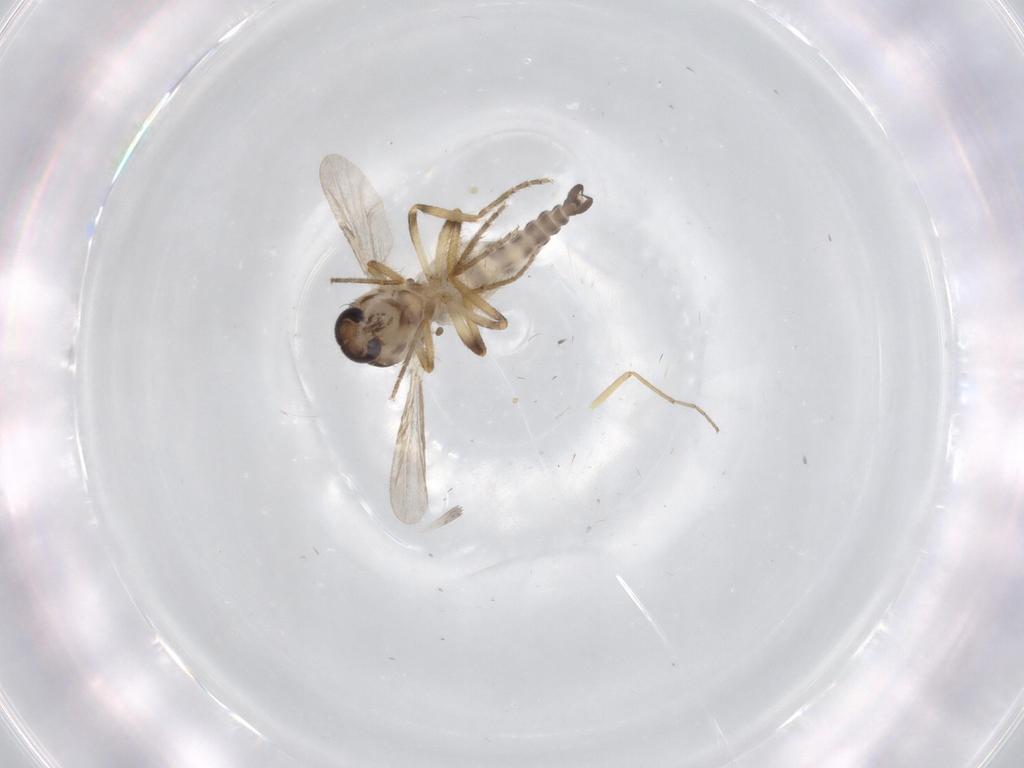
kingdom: Animalia
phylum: Arthropoda
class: Insecta
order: Diptera
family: Ceratopogonidae
